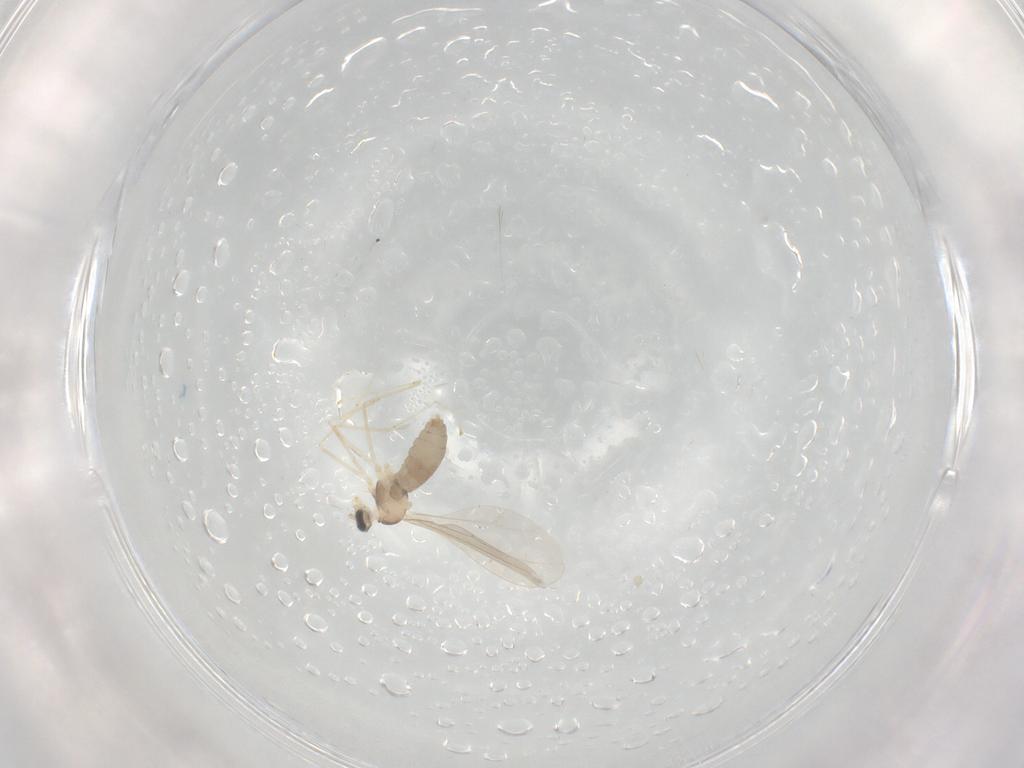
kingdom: Animalia
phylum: Arthropoda
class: Insecta
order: Diptera
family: Cecidomyiidae
